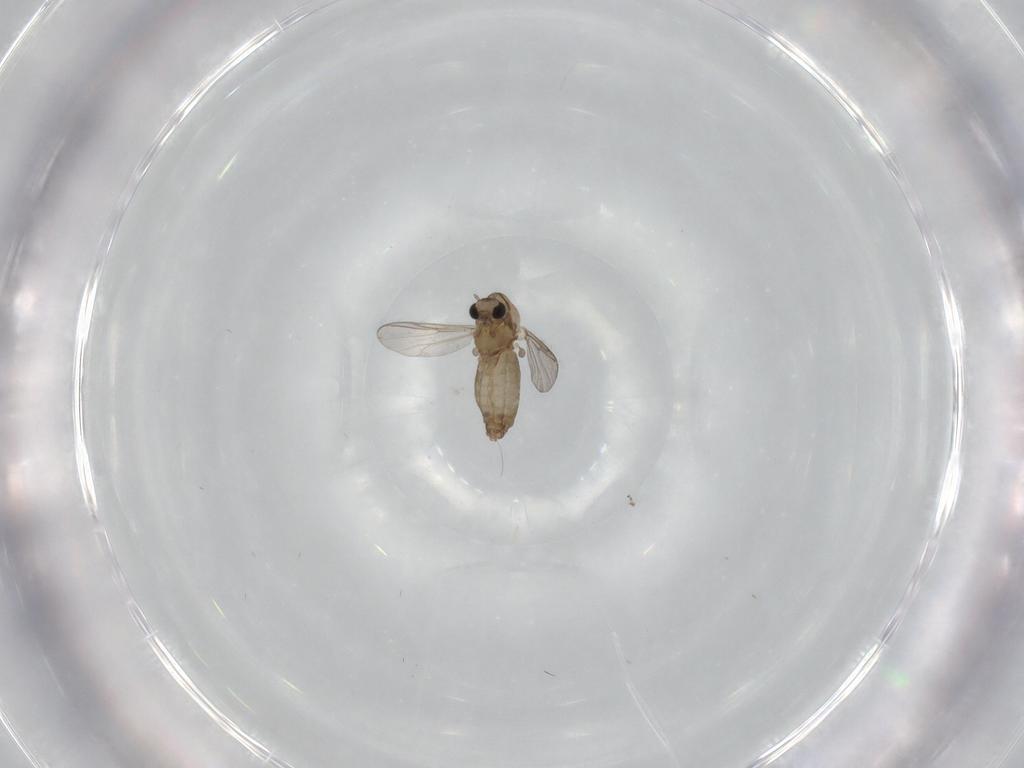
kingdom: Animalia
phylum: Arthropoda
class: Insecta
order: Diptera
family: Chironomidae
